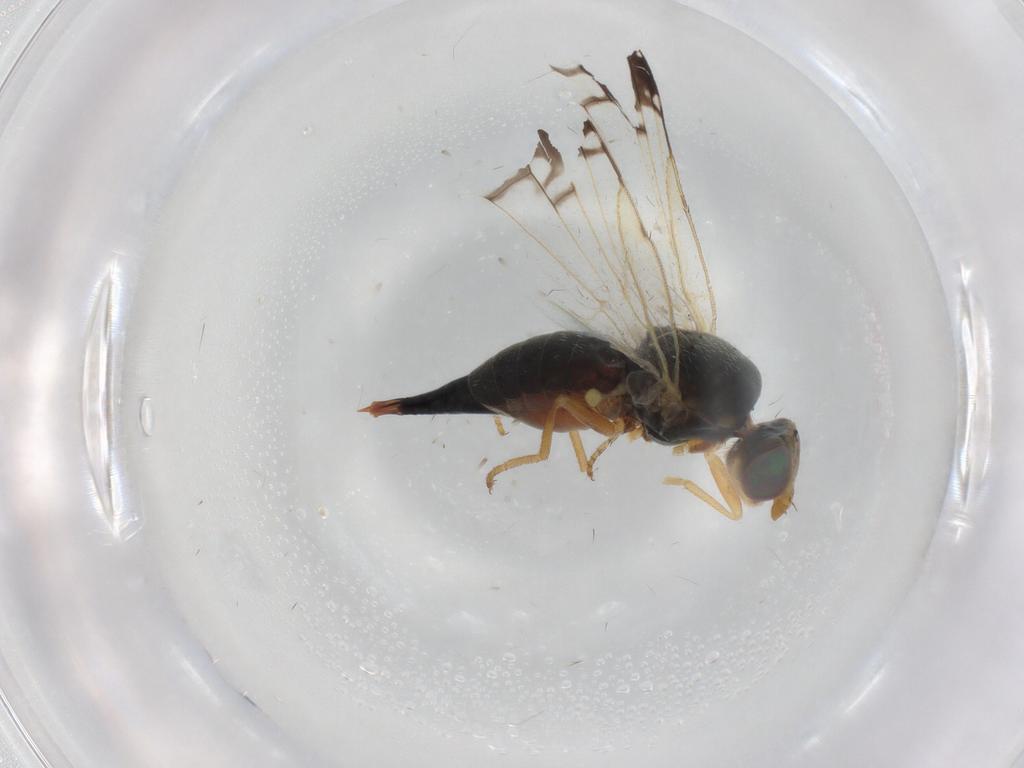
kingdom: Animalia
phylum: Arthropoda
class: Insecta
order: Diptera
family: Tephritidae
